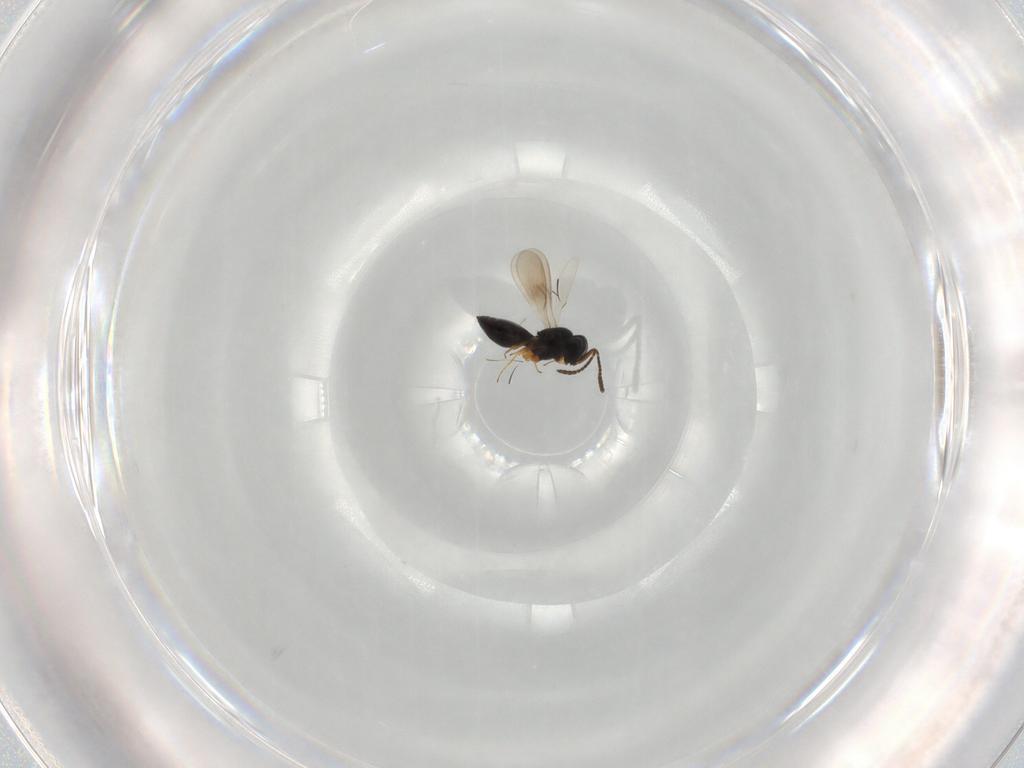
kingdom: Animalia
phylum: Arthropoda
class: Insecta
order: Hymenoptera
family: Scelionidae
